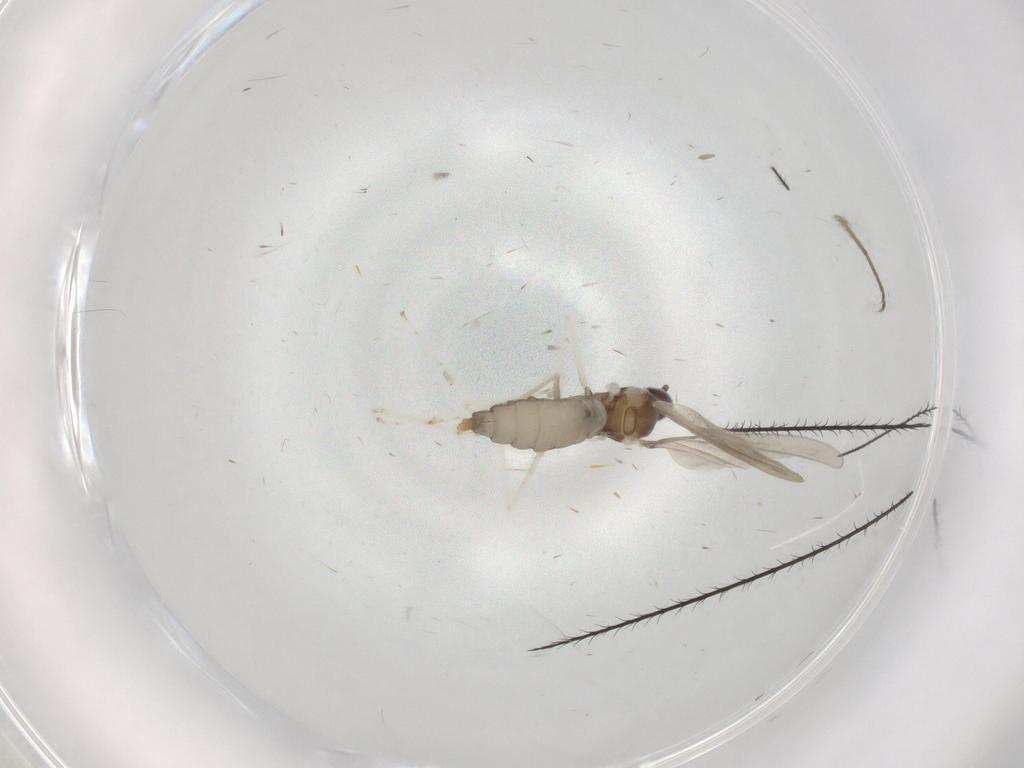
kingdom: Animalia
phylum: Arthropoda
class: Insecta
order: Diptera
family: Cecidomyiidae
